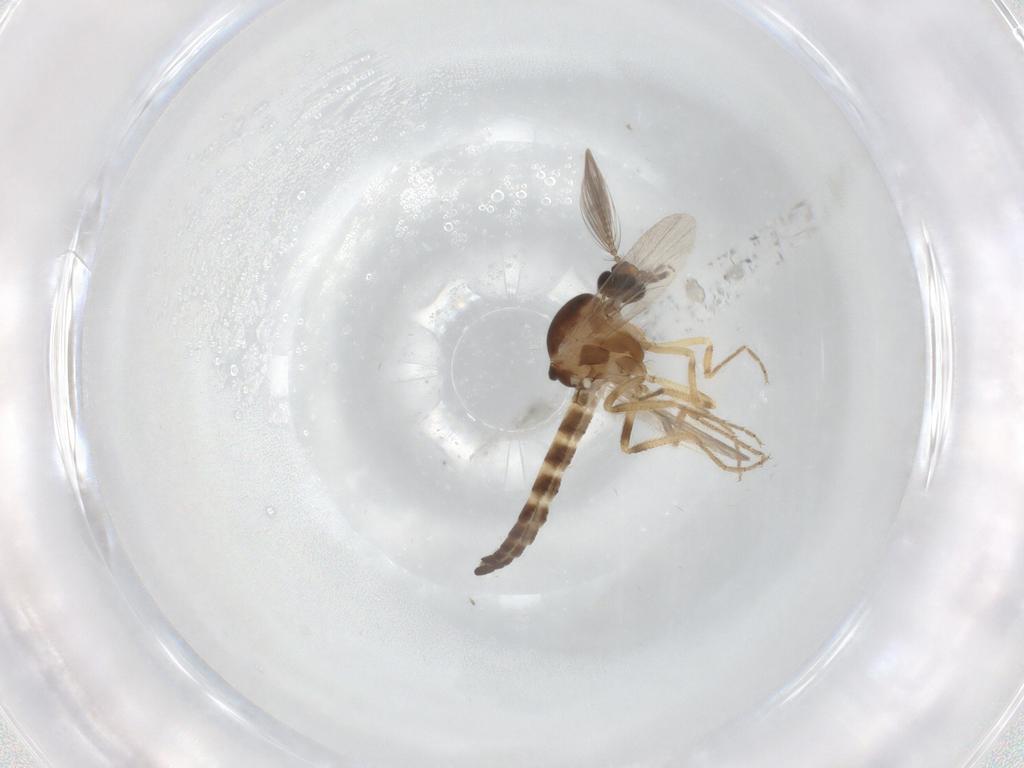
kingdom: Animalia
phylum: Arthropoda
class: Insecta
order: Diptera
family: Ceratopogonidae
